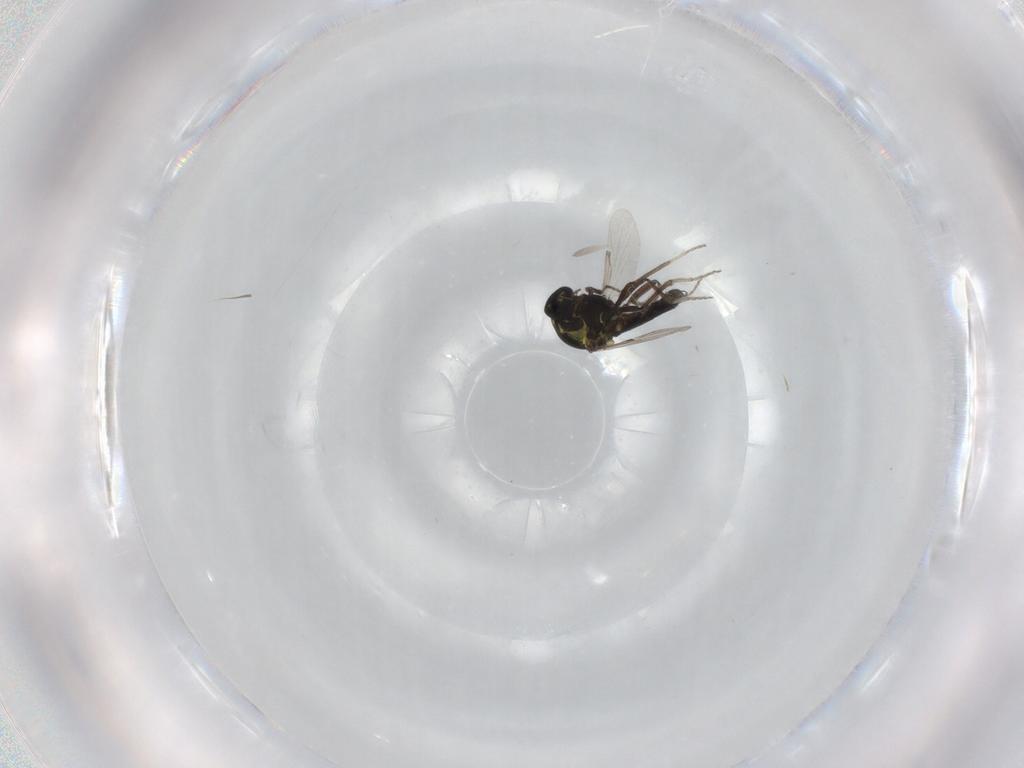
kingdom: Animalia
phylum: Arthropoda
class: Insecta
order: Diptera
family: Ceratopogonidae
